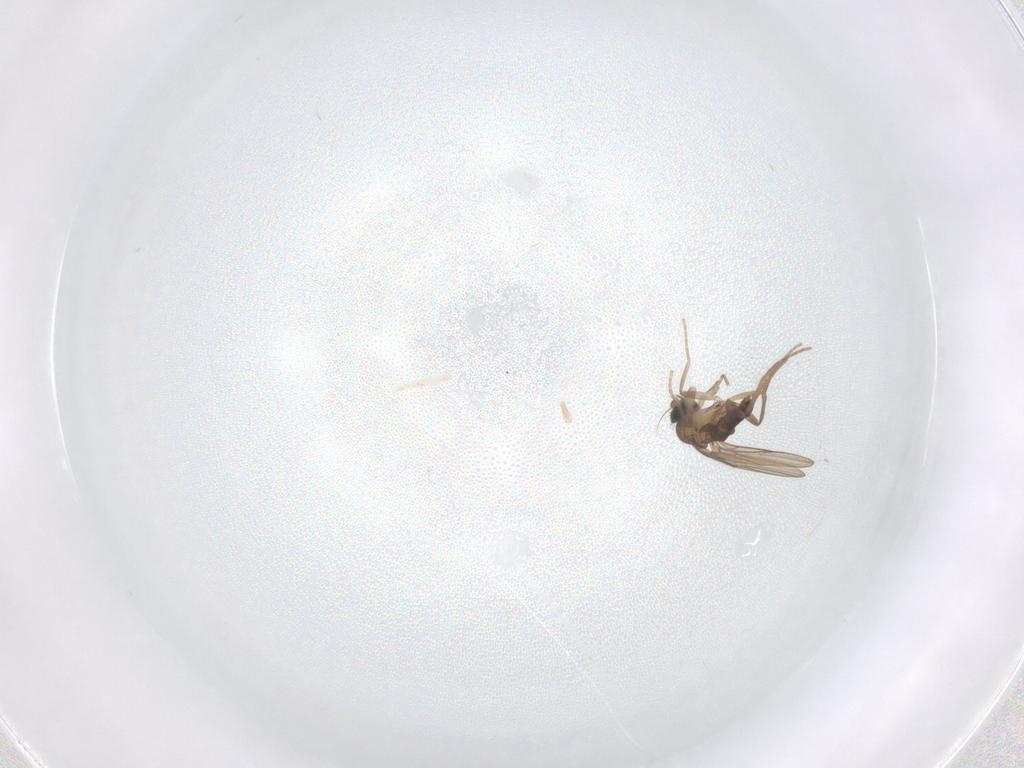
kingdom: Animalia
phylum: Arthropoda
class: Insecta
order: Diptera
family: Phoridae
